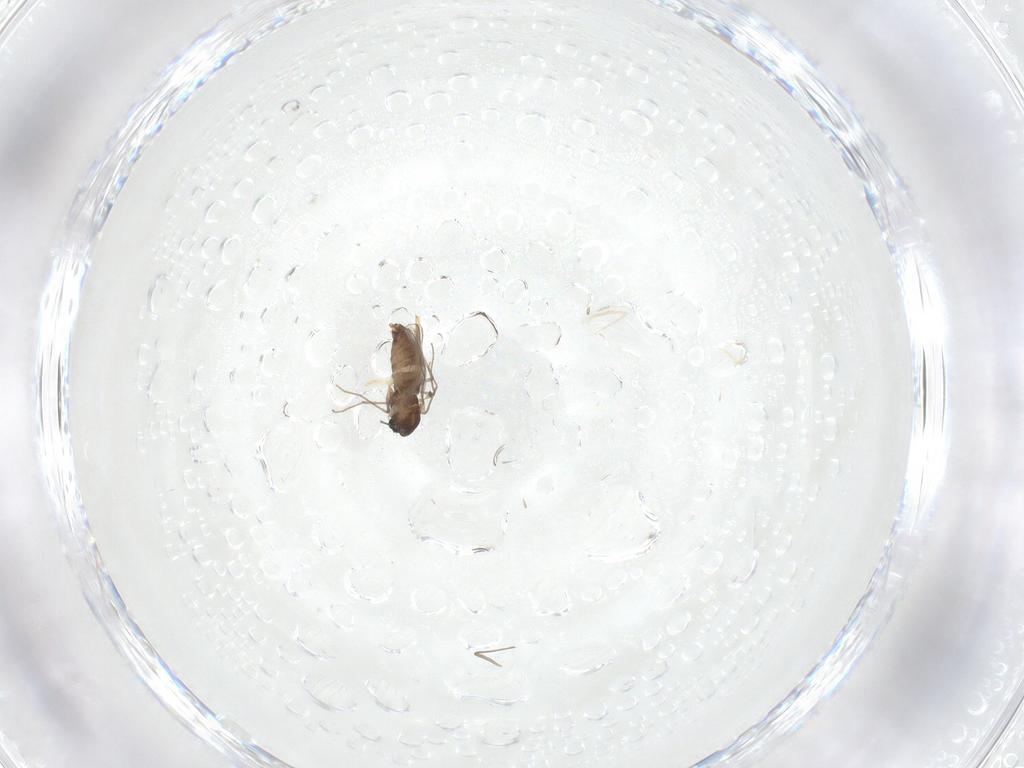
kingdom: Animalia
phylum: Arthropoda
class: Insecta
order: Diptera
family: Chironomidae
